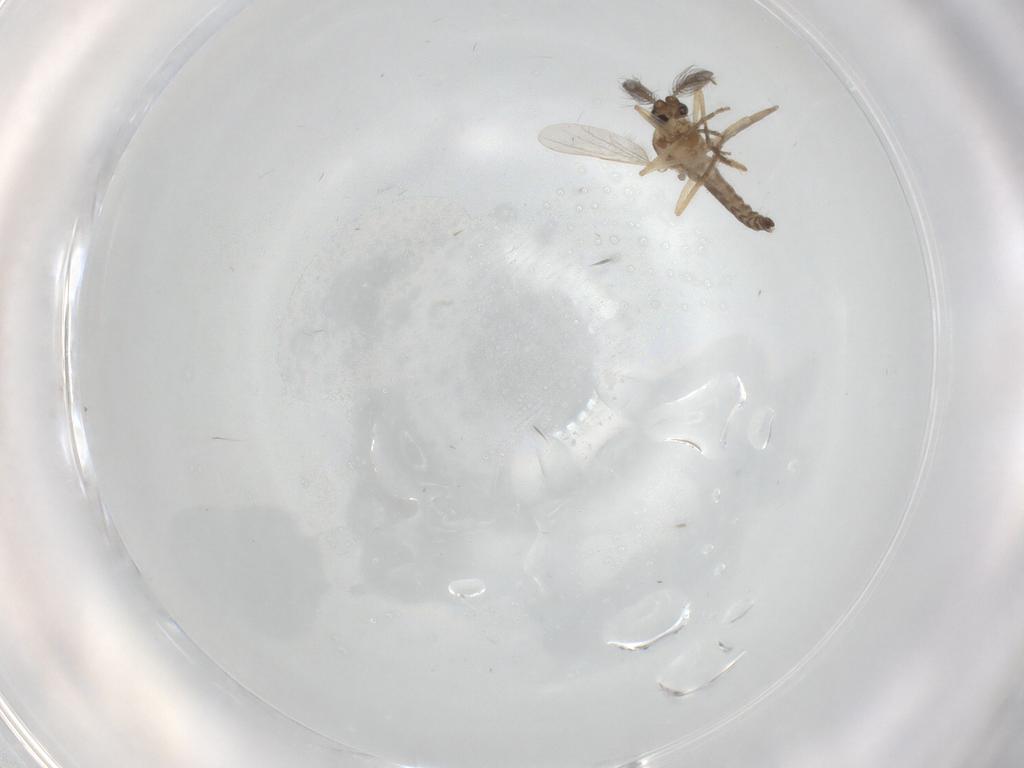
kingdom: Animalia
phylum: Arthropoda
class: Insecta
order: Diptera
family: Ceratopogonidae
